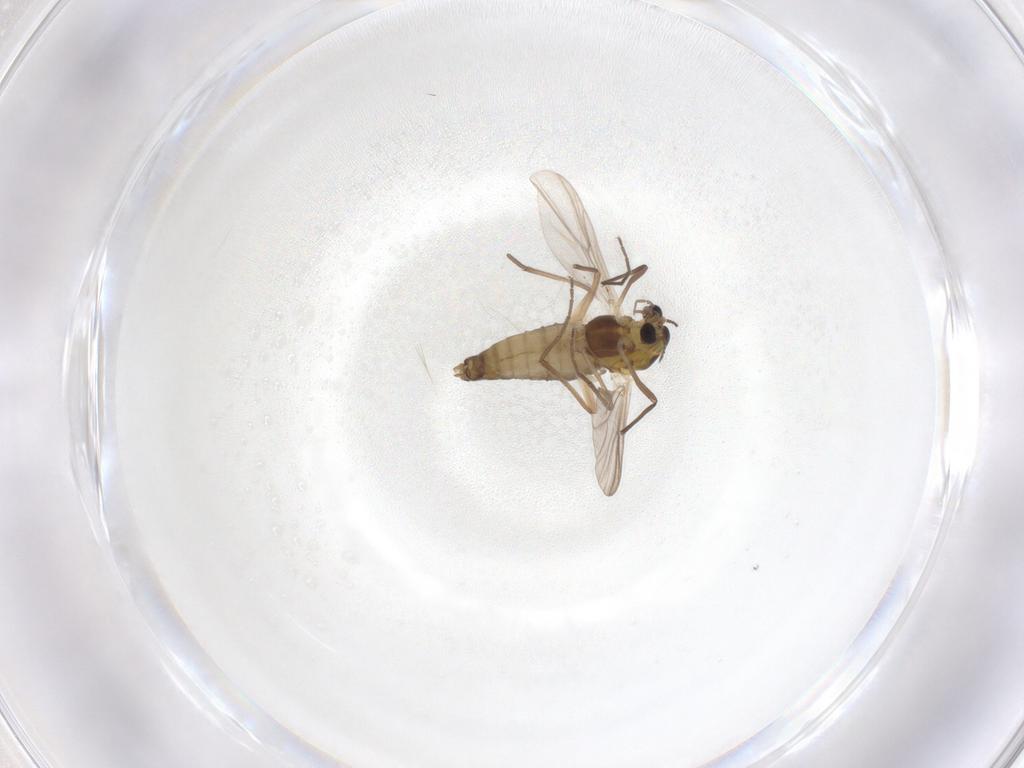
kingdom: Animalia
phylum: Arthropoda
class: Insecta
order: Diptera
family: Chironomidae
